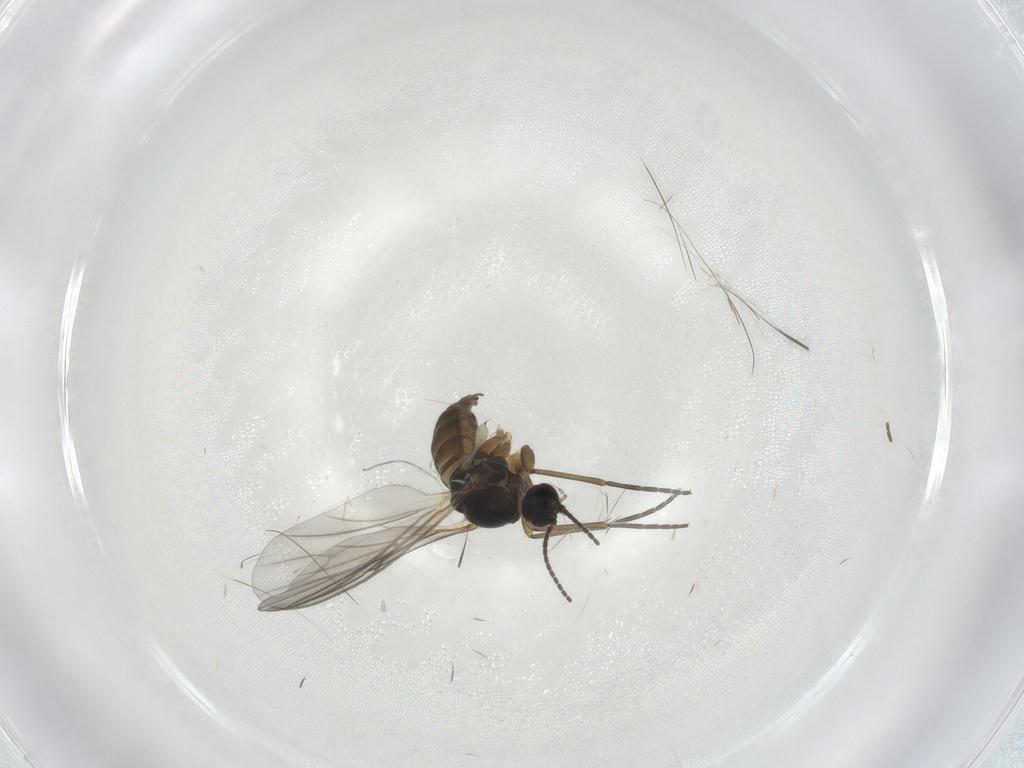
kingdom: Animalia
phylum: Arthropoda
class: Insecta
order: Diptera
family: Sciaridae
